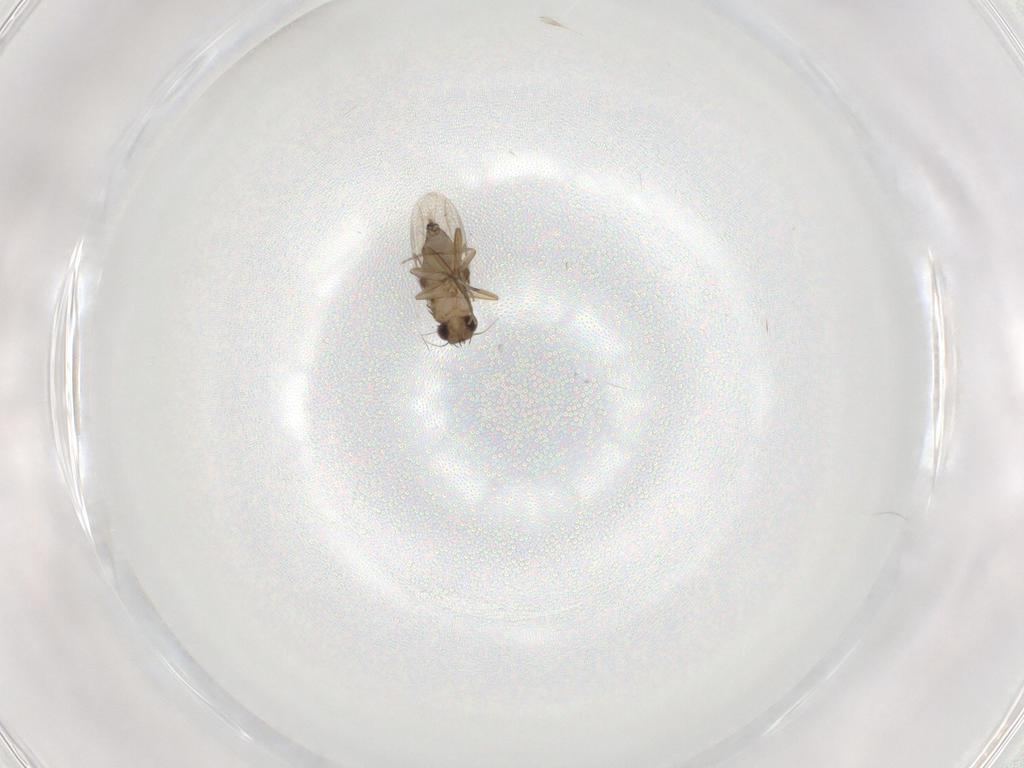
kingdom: Animalia
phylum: Arthropoda
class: Insecta
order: Diptera
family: Phoridae
